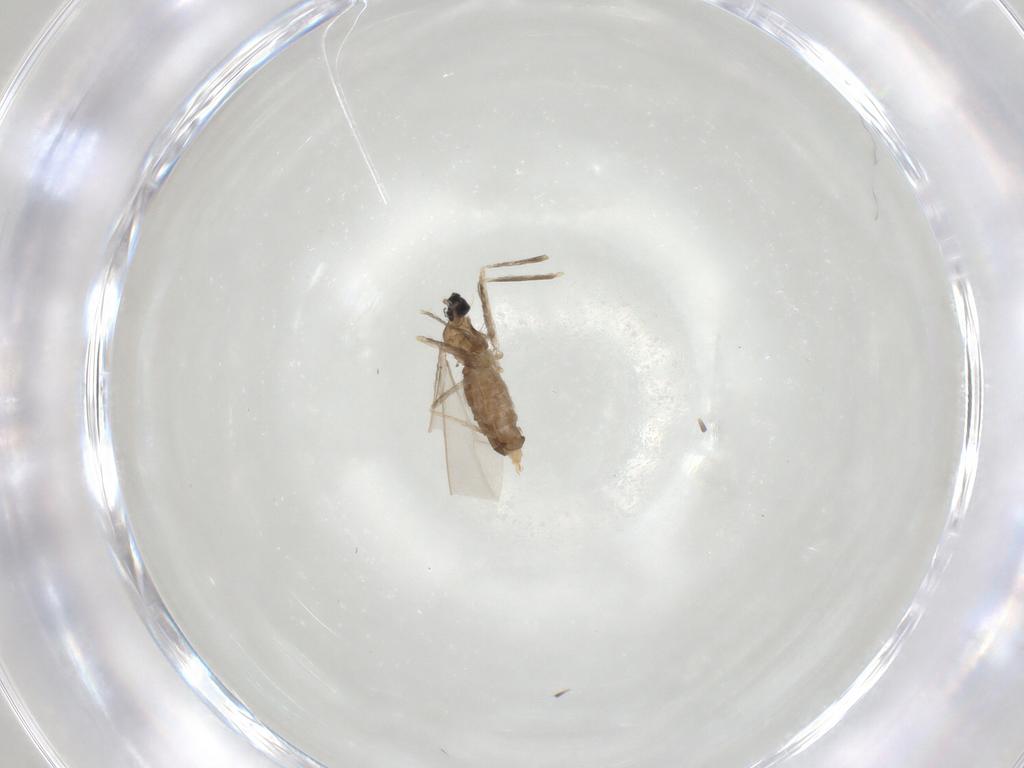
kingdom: Animalia
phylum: Arthropoda
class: Insecta
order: Diptera
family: Cecidomyiidae
